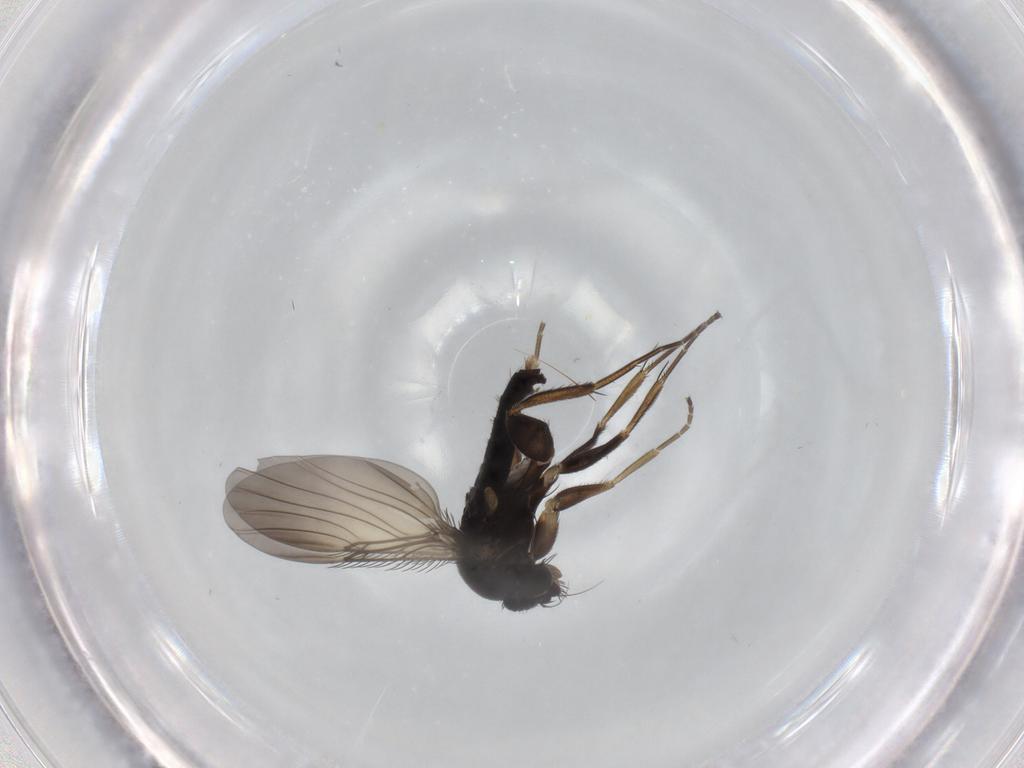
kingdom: Animalia
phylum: Arthropoda
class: Insecta
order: Diptera
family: Phoridae
